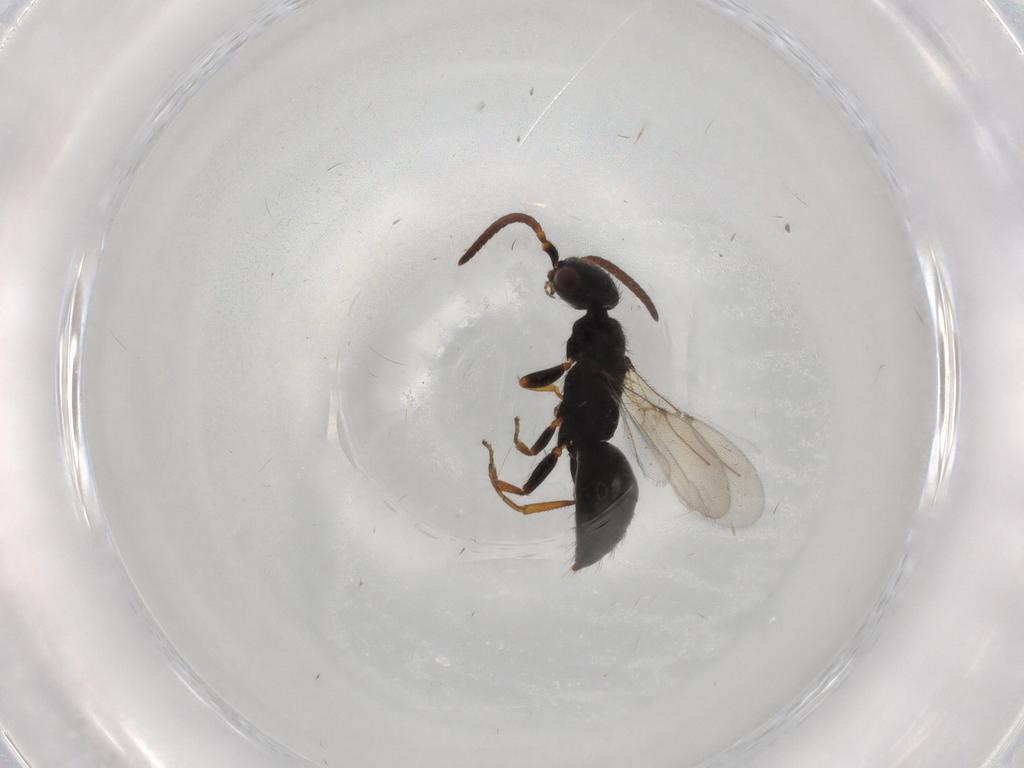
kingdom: Animalia
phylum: Arthropoda
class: Insecta
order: Hymenoptera
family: Bethylidae
